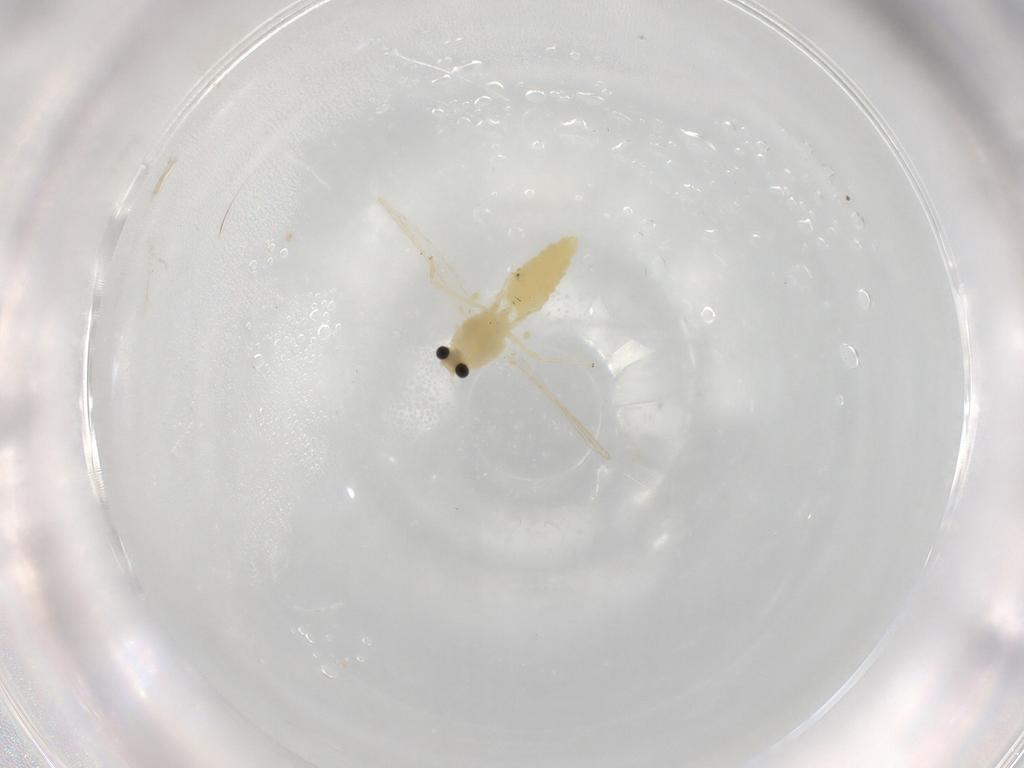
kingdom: Animalia
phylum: Arthropoda
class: Insecta
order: Diptera
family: Chironomidae
